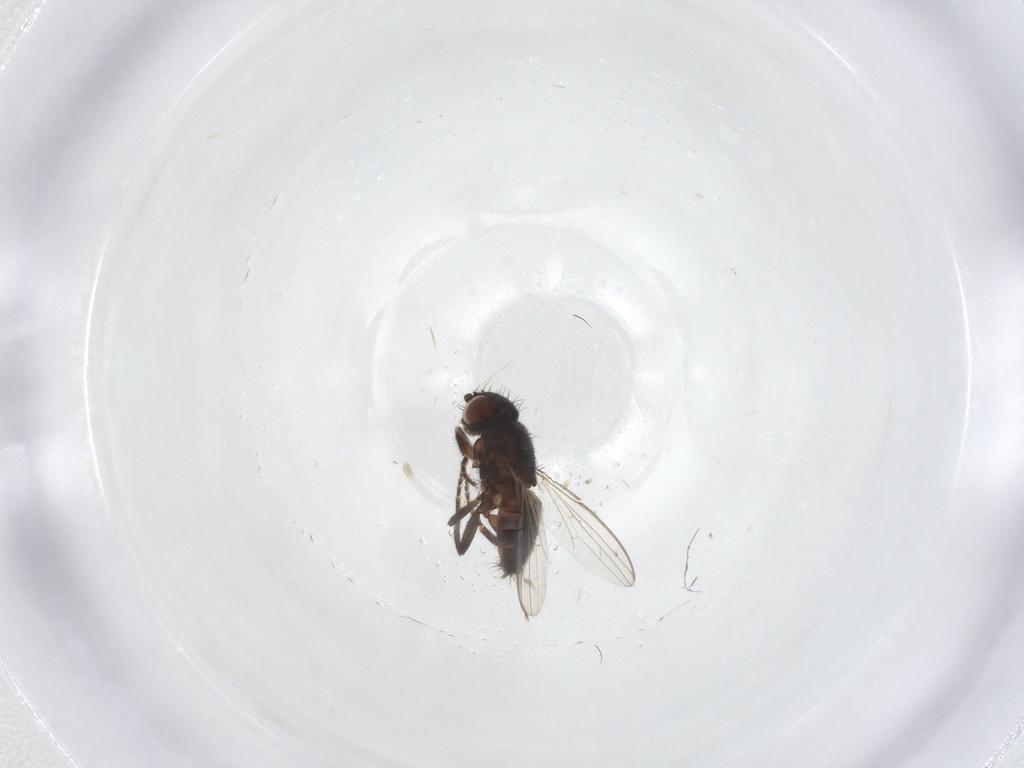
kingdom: Animalia
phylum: Arthropoda
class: Insecta
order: Diptera
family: Milichiidae
